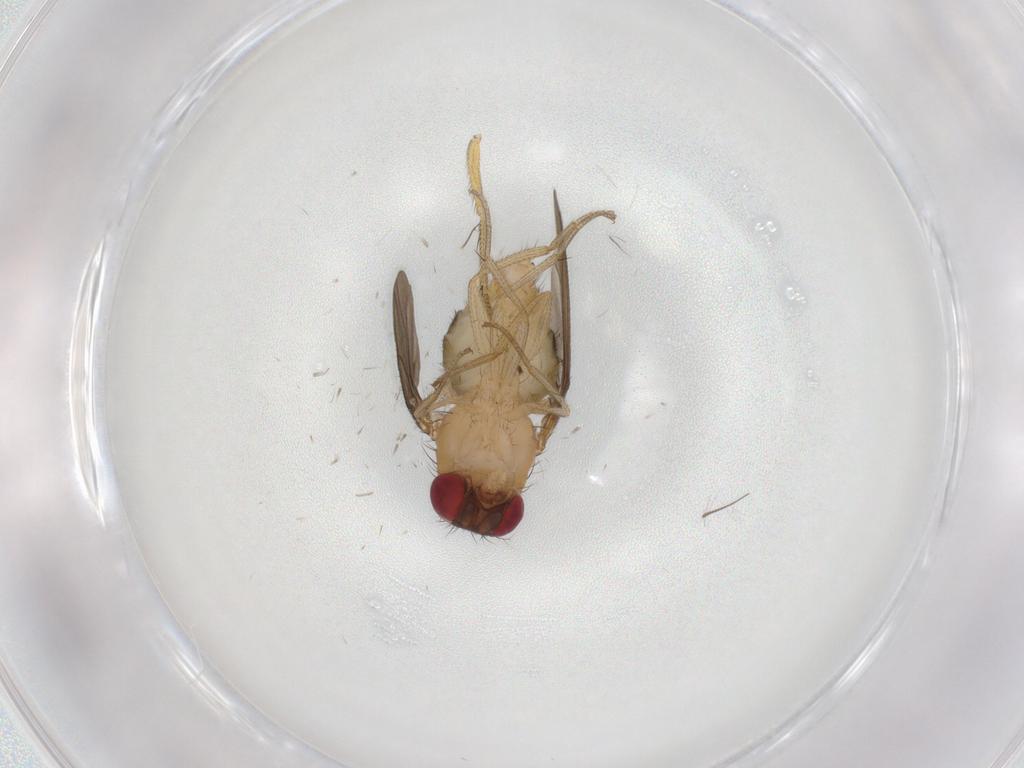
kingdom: Animalia
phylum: Arthropoda
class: Insecta
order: Diptera
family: Drosophilidae
